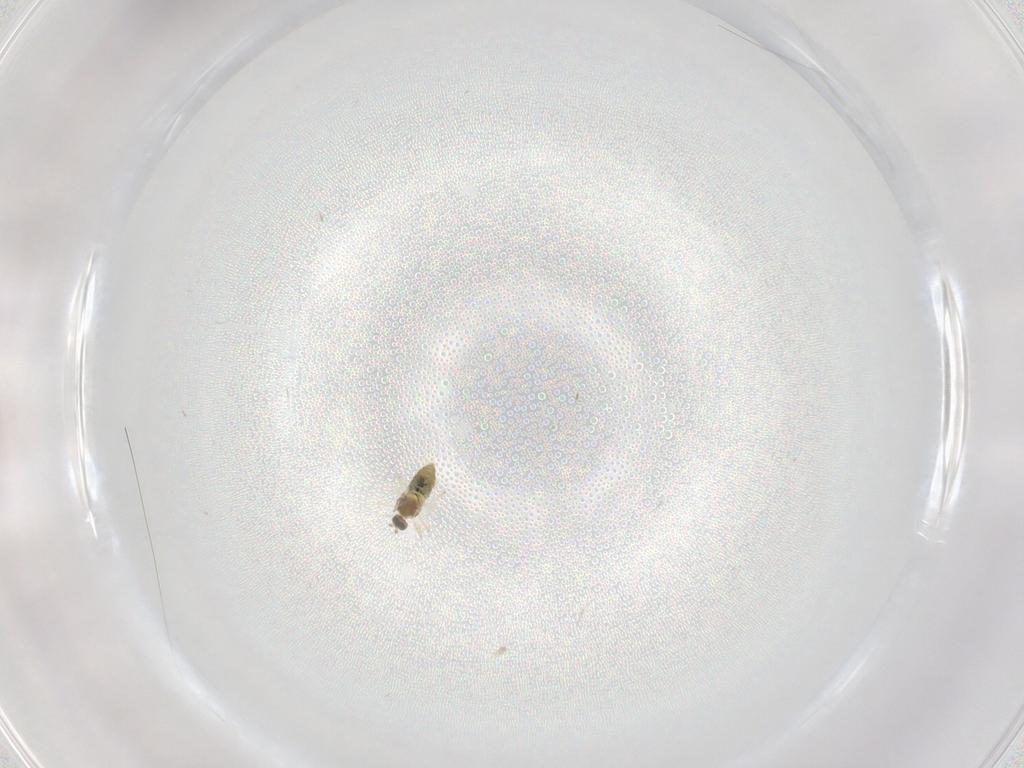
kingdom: Animalia
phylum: Arthropoda
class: Insecta
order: Diptera
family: Cecidomyiidae
